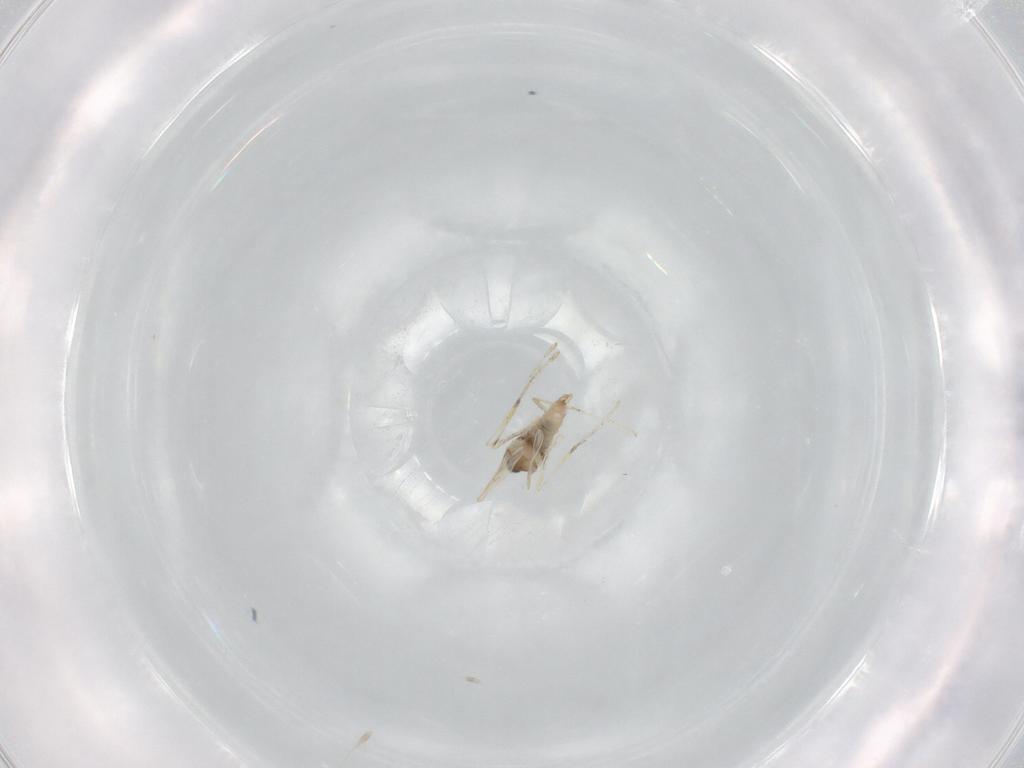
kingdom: Animalia
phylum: Arthropoda
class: Insecta
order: Diptera
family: Cecidomyiidae
